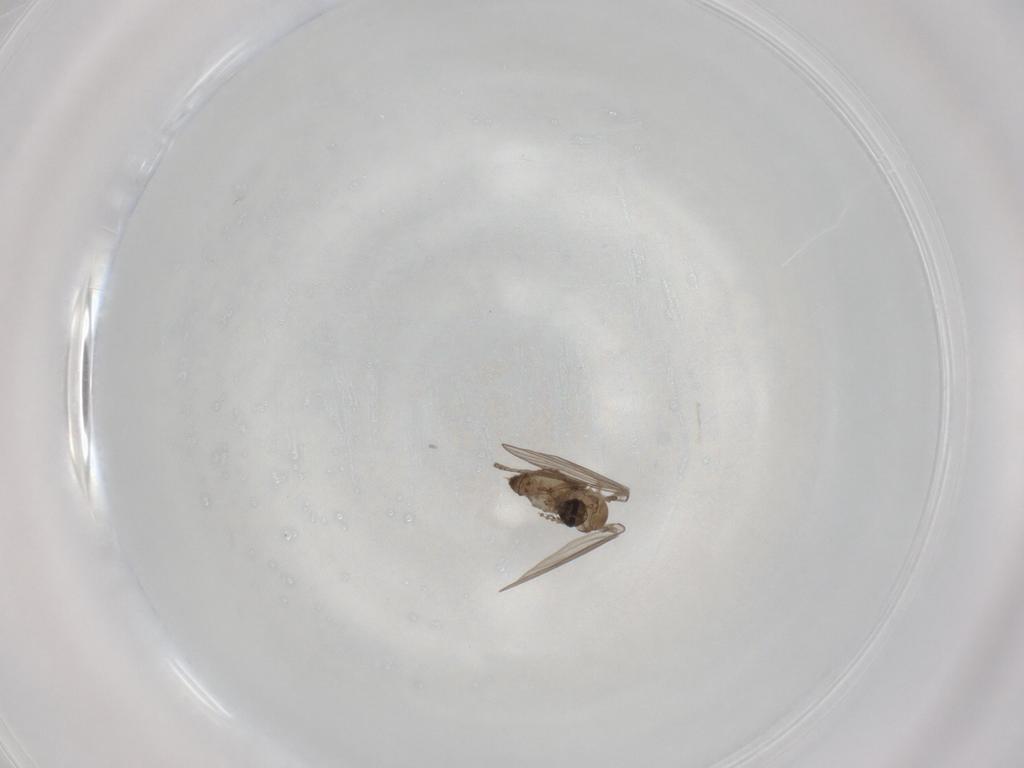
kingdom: Animalia
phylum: Arthropoda
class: Insecta
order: Diptera
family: Psychodidae
